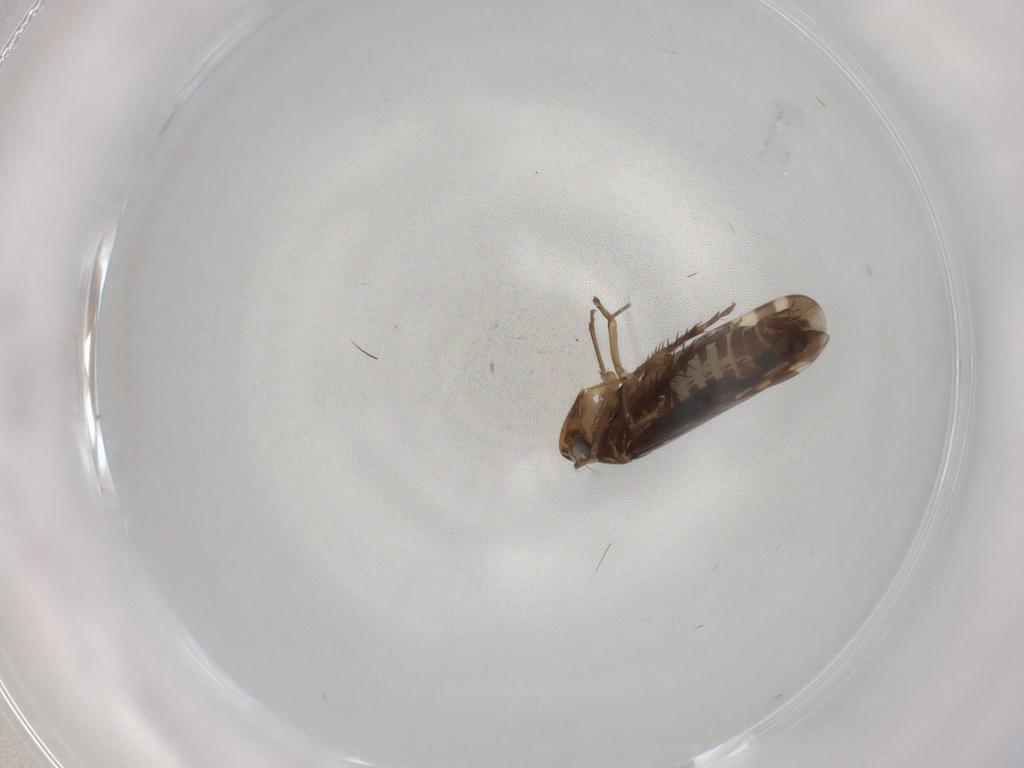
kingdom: Animalia
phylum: Arthropoda
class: Insecta
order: Hemiptera
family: Cicadellidae
